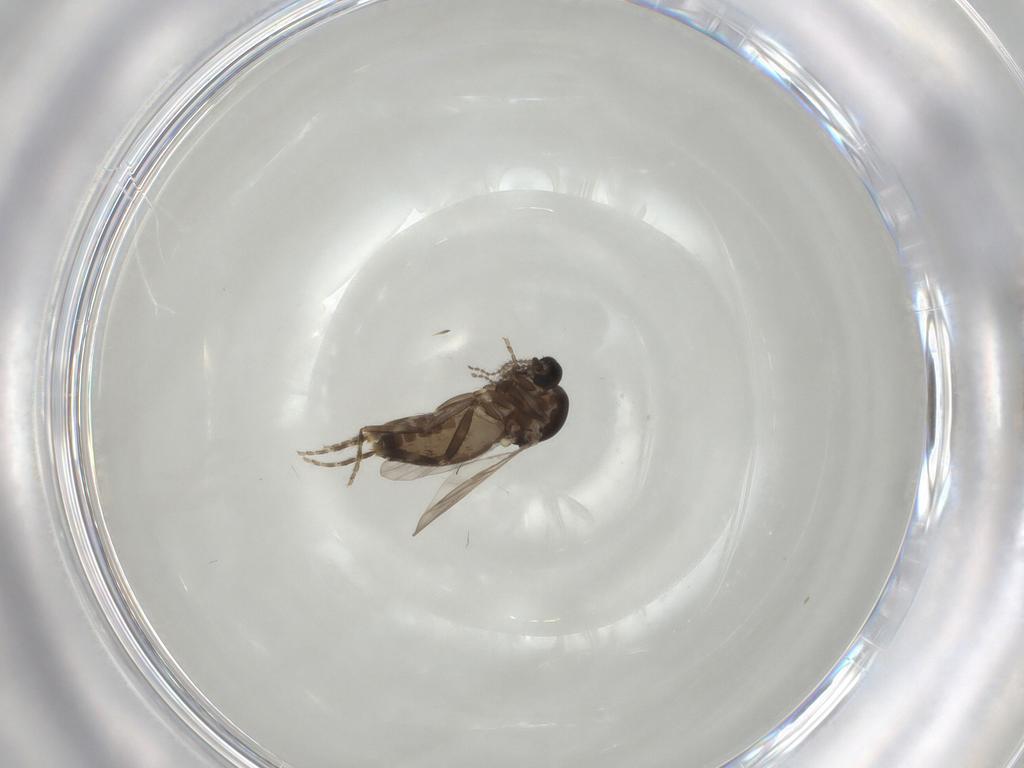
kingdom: Animalia
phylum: Arthropoda
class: Insecta
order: Diptera
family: Ceratopogonidae
